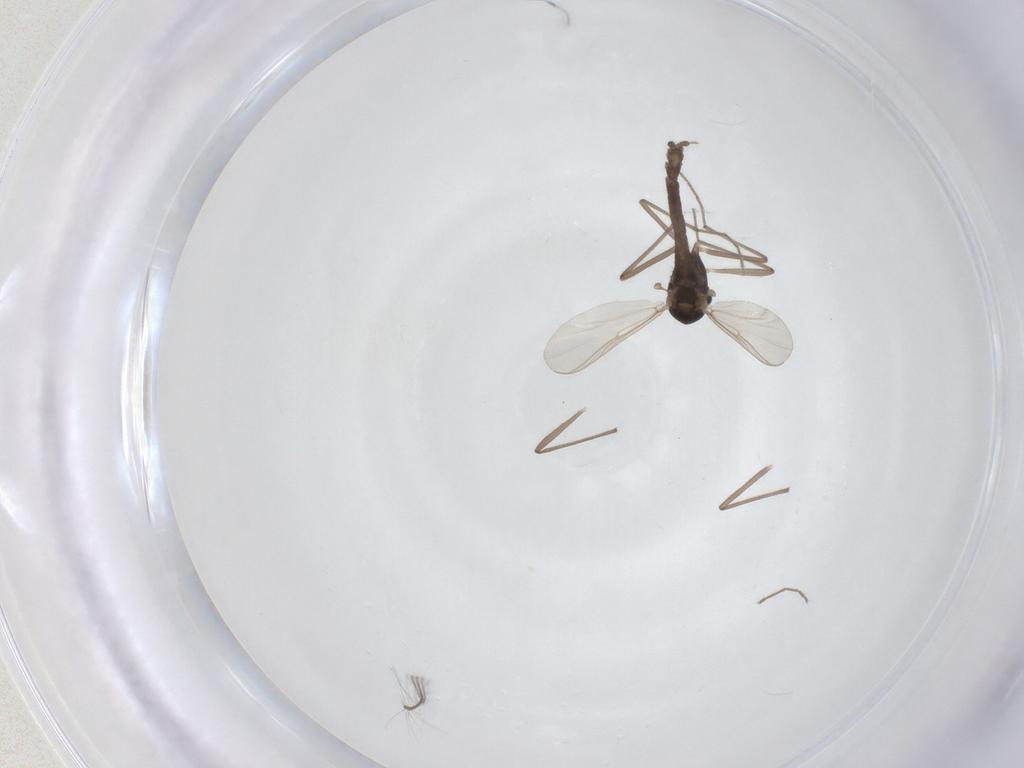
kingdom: Animalia
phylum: Arthropoda
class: Insecta
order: Diptera
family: Chironomidae
